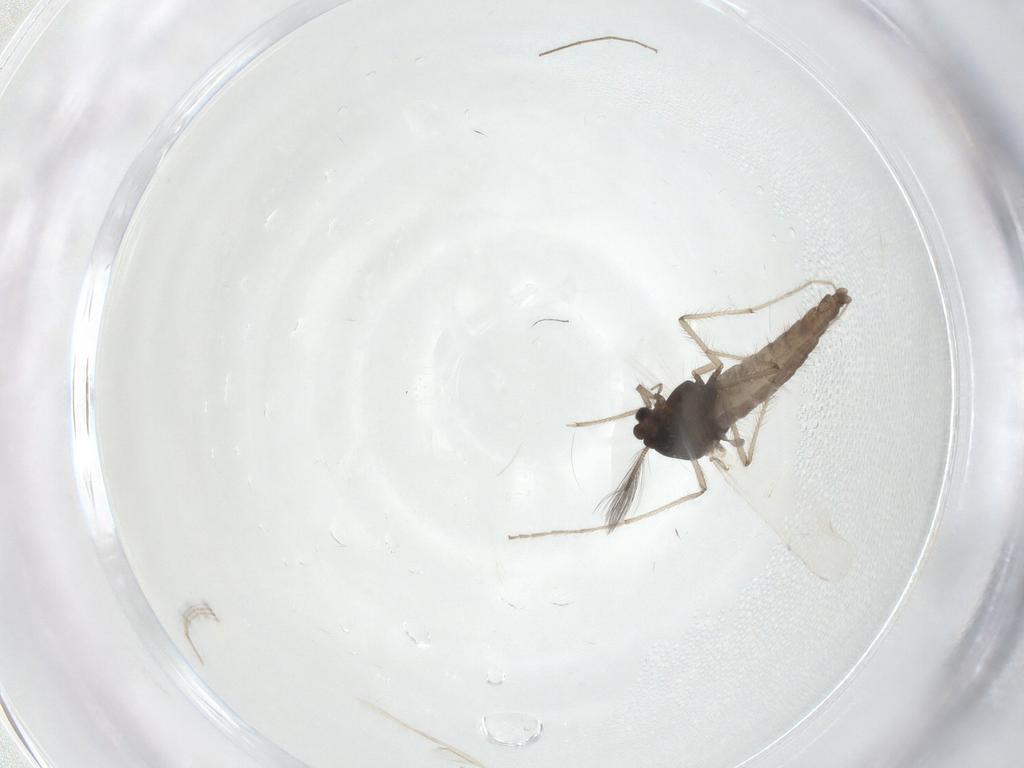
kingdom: Animalia
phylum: Arthropoda
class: Insecta
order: Diptera
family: Chironomidae
